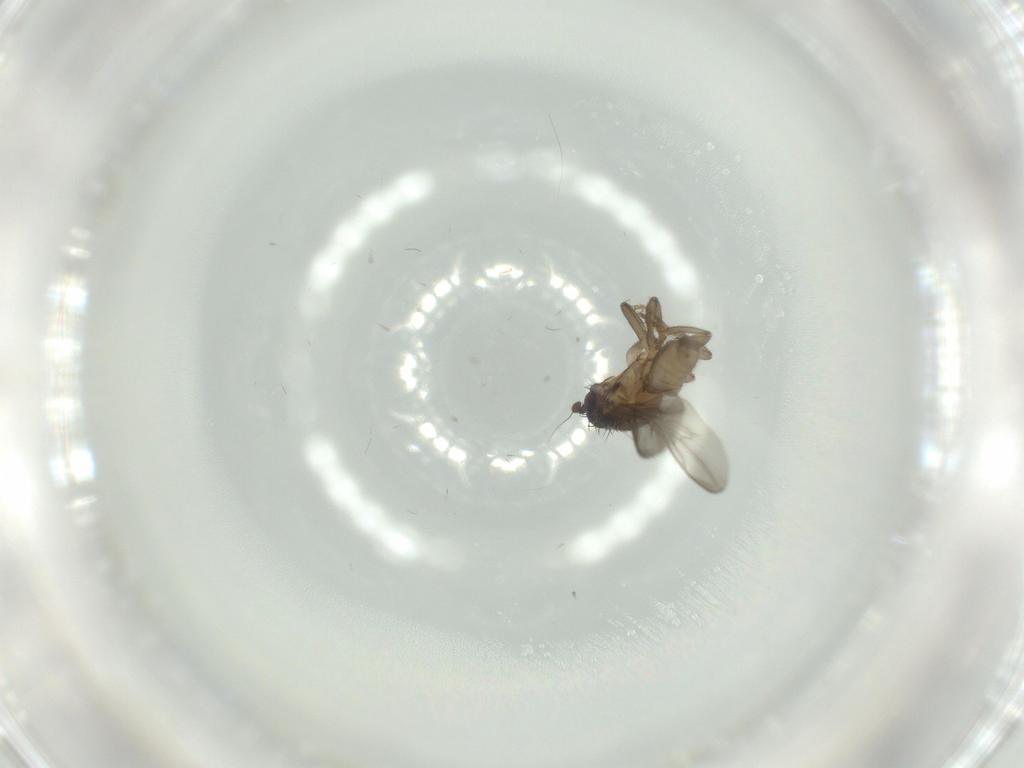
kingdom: Animalia
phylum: Arthropoda
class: Insecta
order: Diptera
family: Sphaeroceridae
